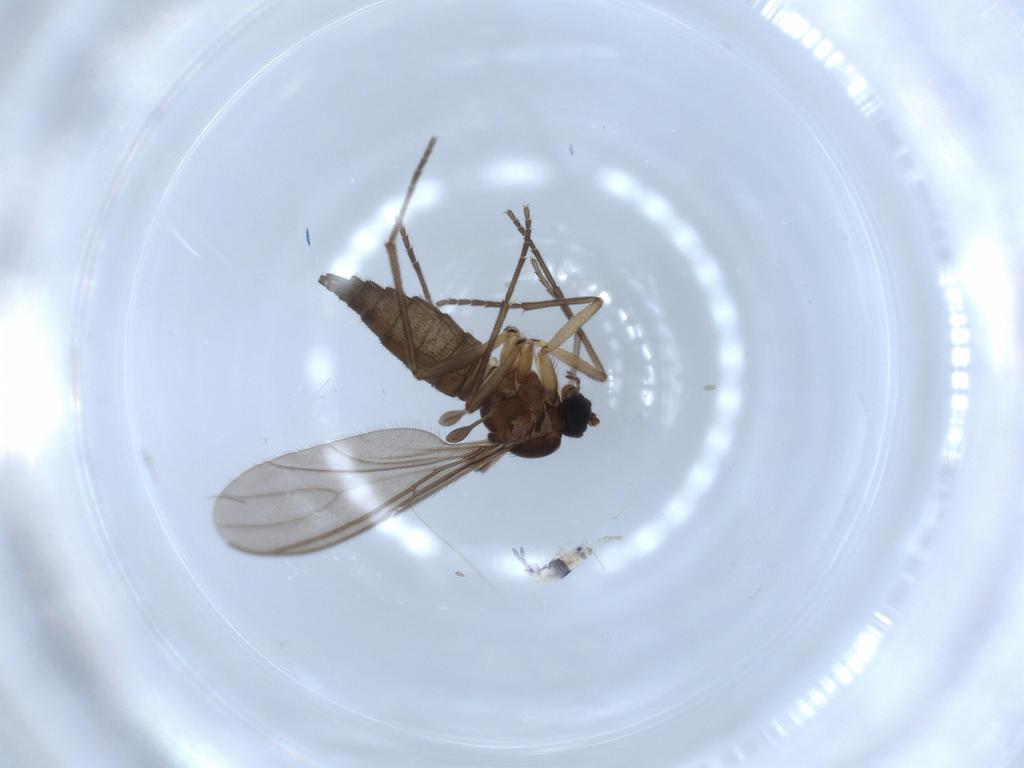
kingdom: Animalia
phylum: Arthropoda
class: Insecta
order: Diptera
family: Sciaridae
